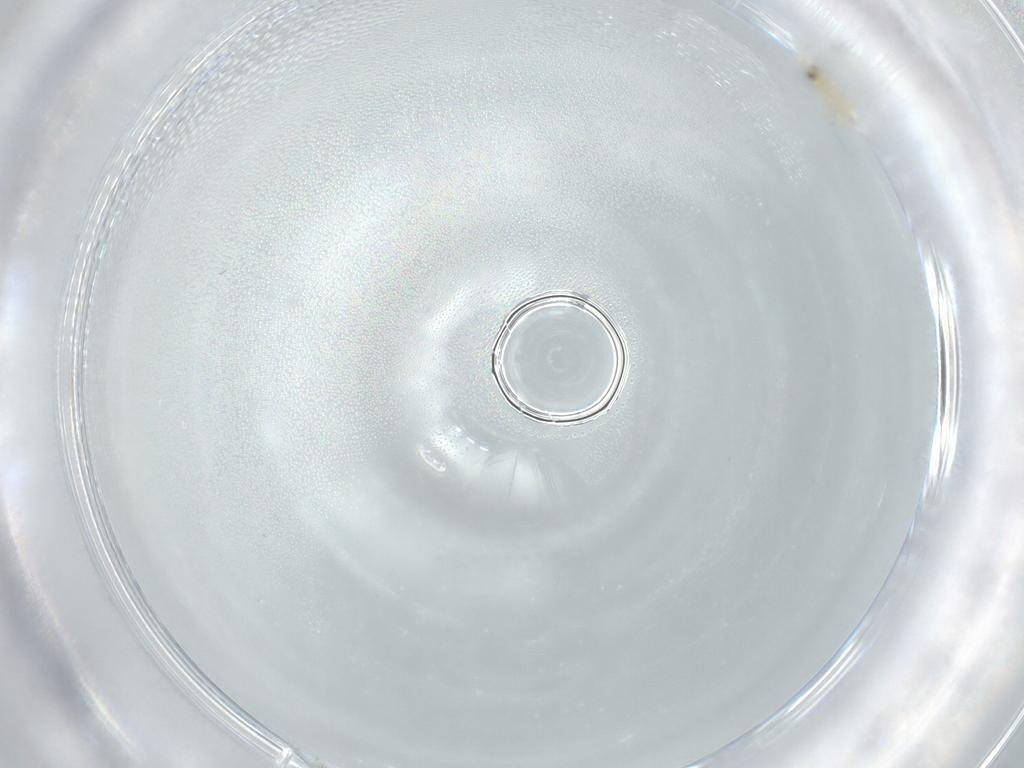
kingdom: Animalia
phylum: Arthropoda
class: Insecta
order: Hymenoptera
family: Mymaridae
